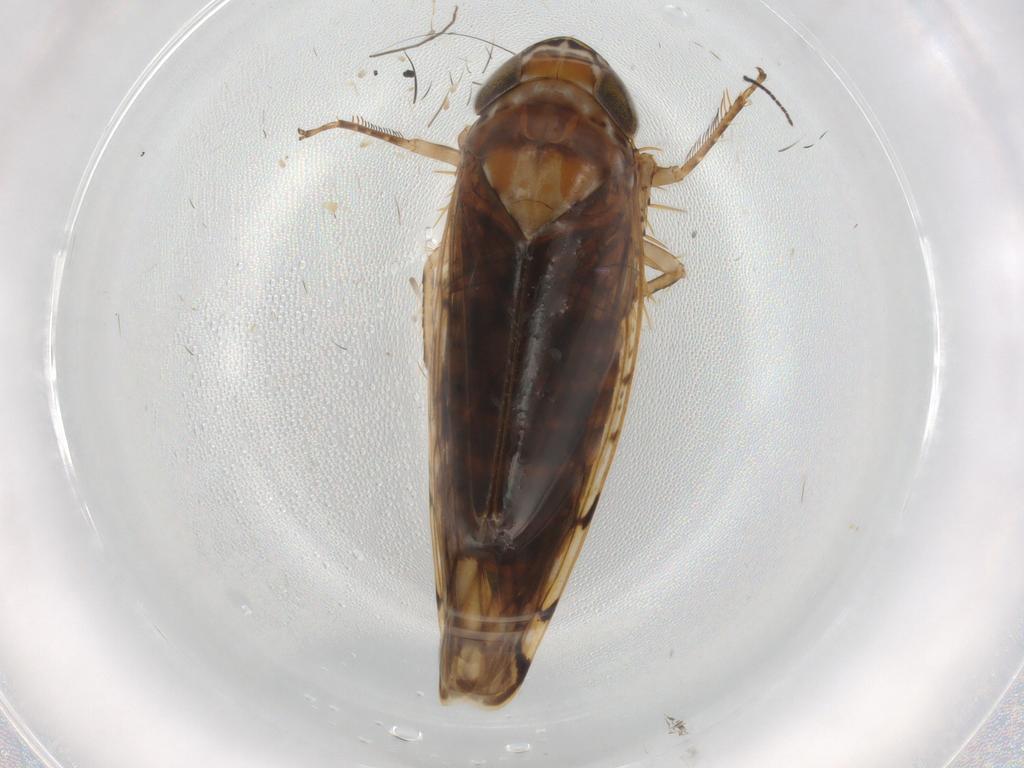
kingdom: Animalia
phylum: Arthropoda
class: Insecta
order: Hemiptera
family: Cicadellidae
